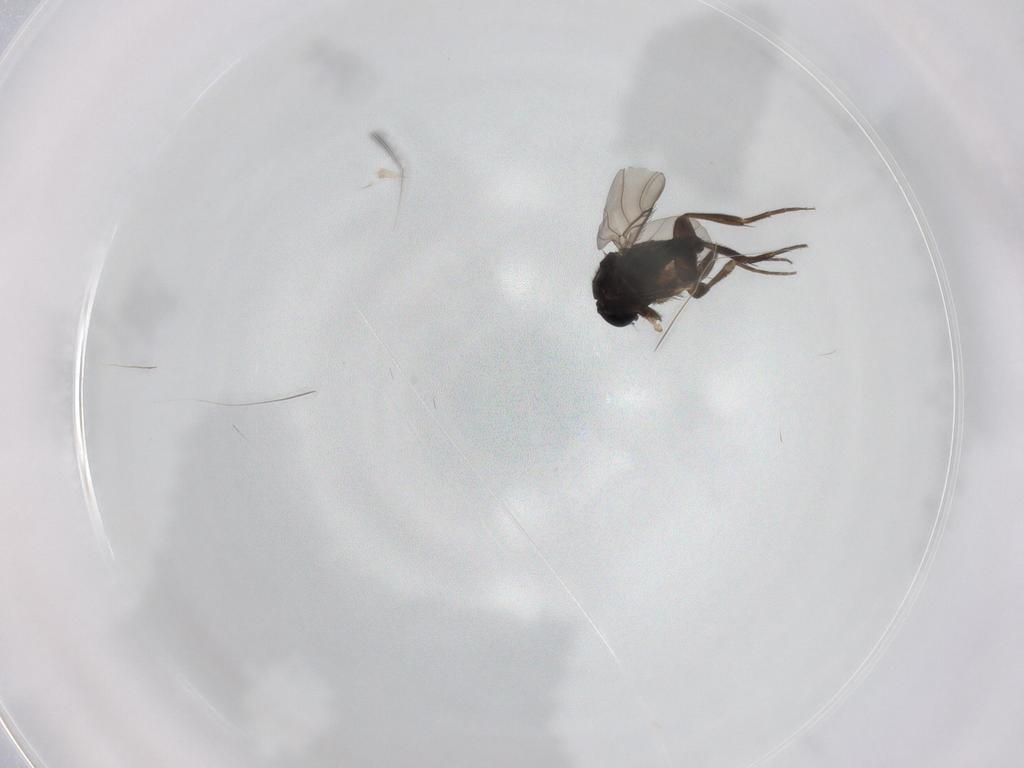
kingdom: Animalia
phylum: Arthropoda
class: Insecta
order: Diptera
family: Phoridae
